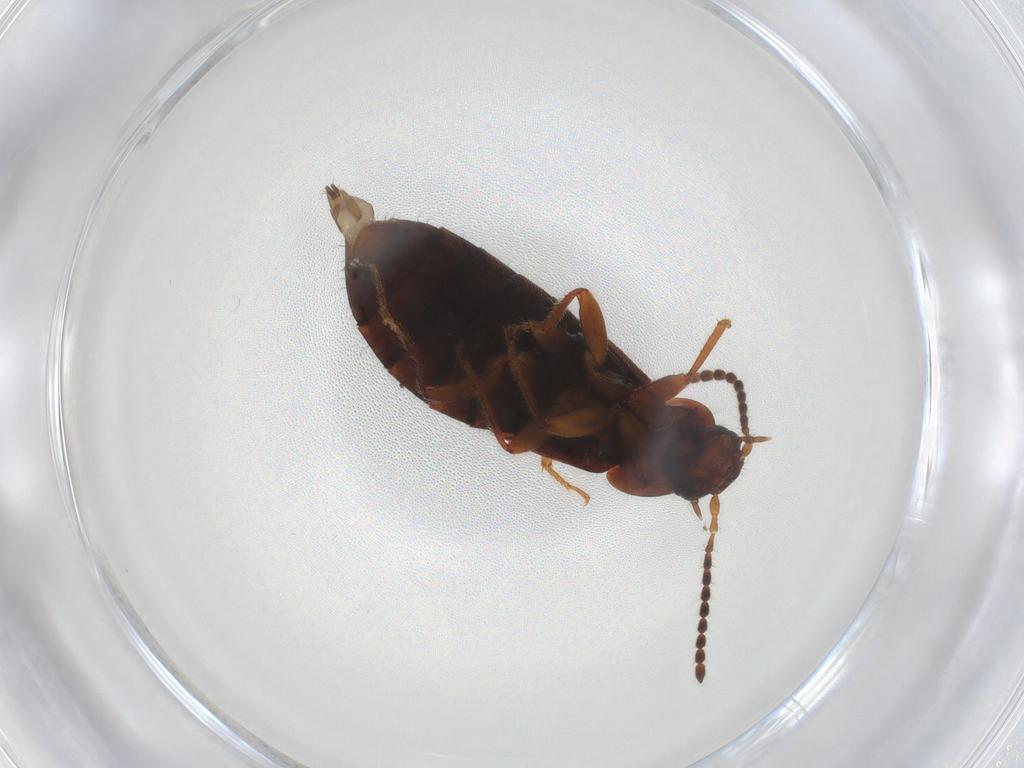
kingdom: Animalia
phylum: Arthropoda
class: Insecta
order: Coleoptera
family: Staphylinidae
